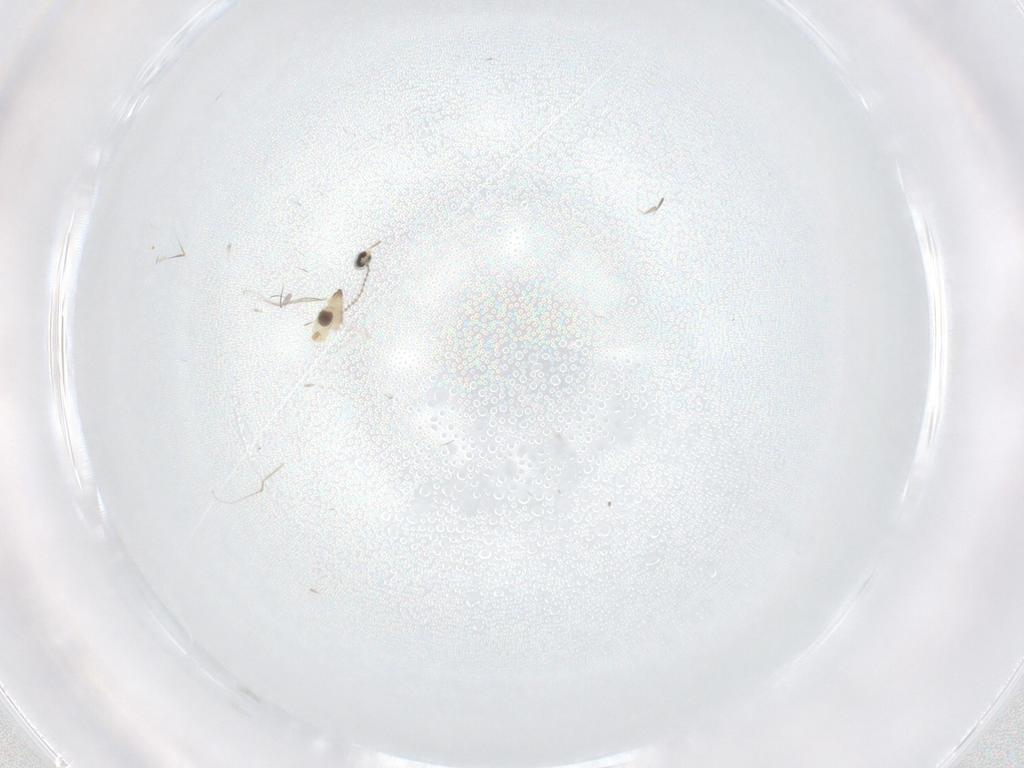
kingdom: Animalia
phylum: Arthropoda
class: Insecta
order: Diptera
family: Cecidomyiidae
